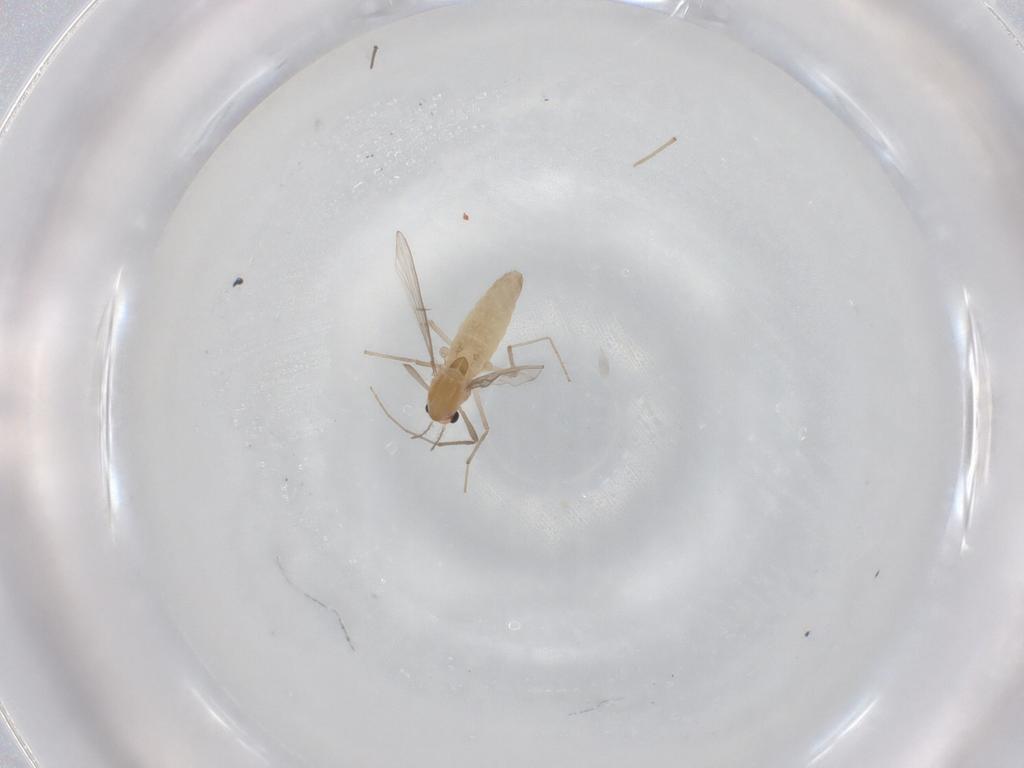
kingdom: Animalia
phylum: Arthropoda
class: Insecta
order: Diptera
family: Chironomidae
